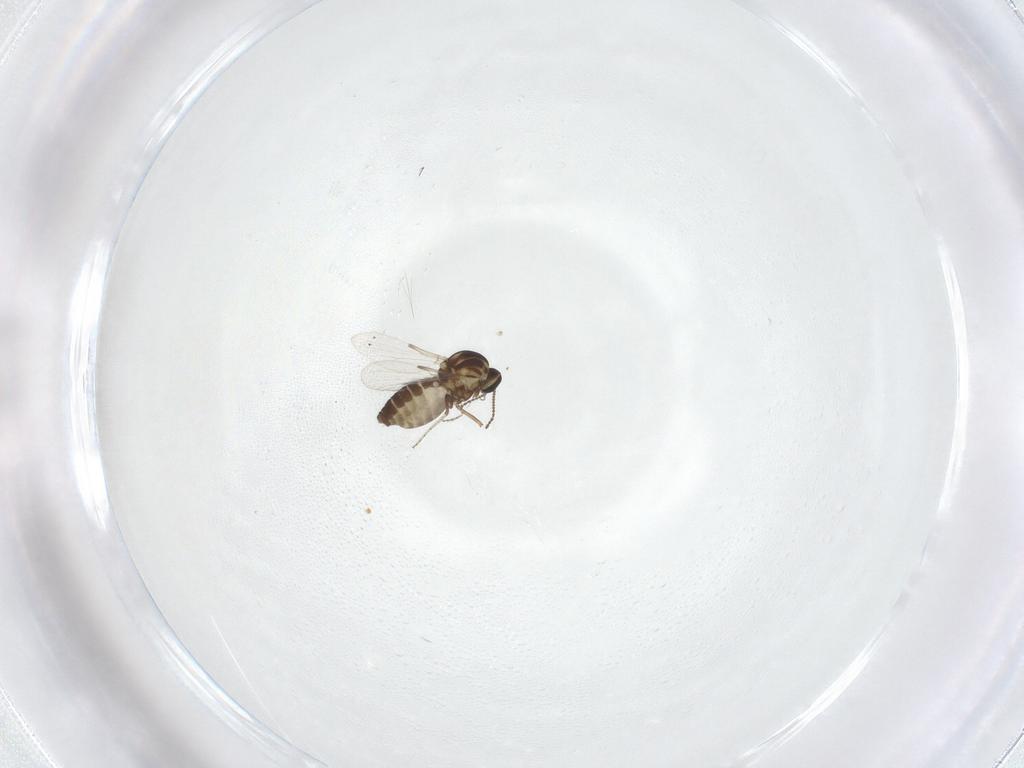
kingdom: Animalia
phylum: Arthropoda
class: Insecta
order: Diptera
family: Ceratopogonidae
